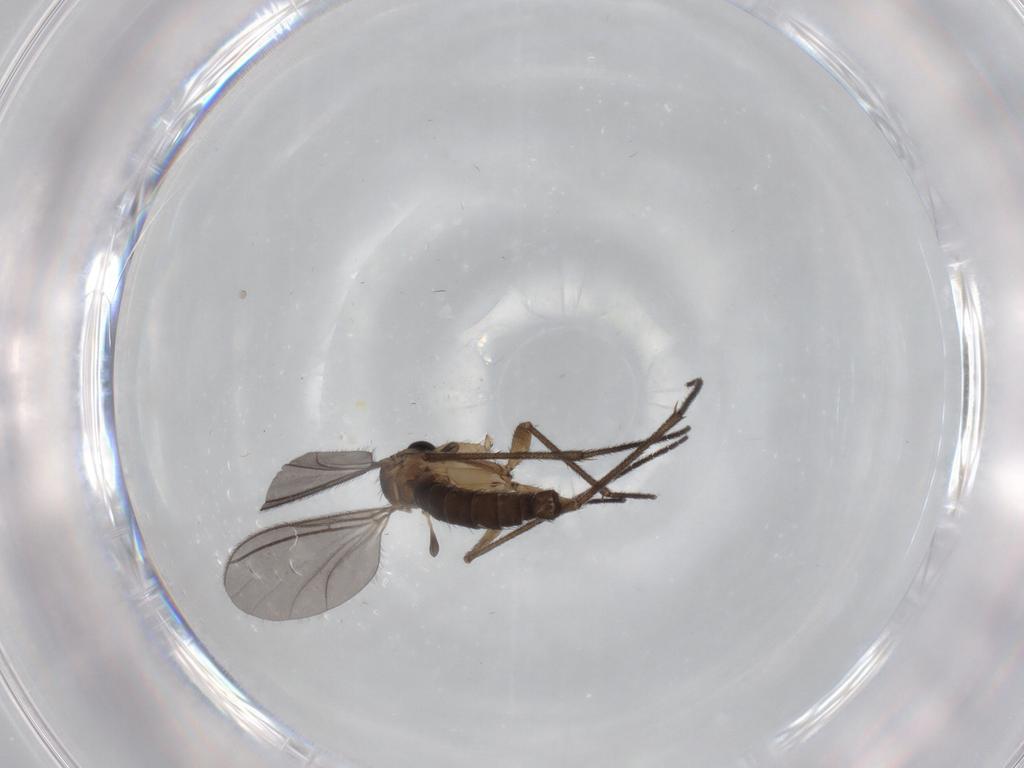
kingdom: Animalia
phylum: Arthropoda
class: Insecta
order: Diptera
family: Sciaridae
